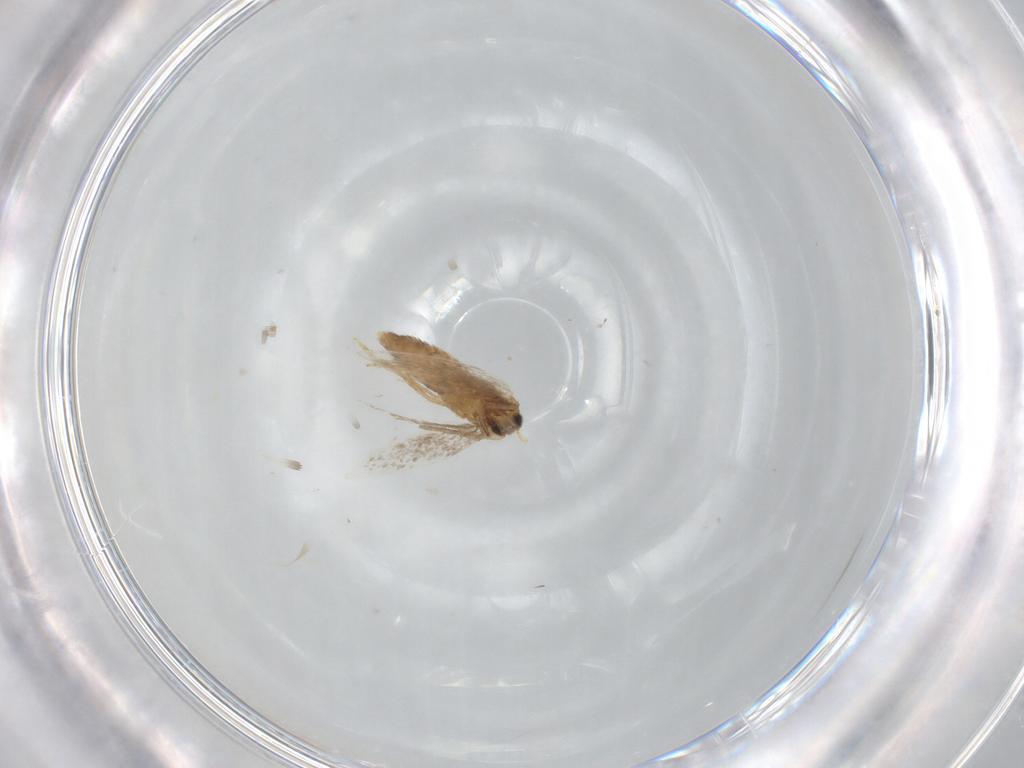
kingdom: Animalia
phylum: Arthropoda
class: Insecta
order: Lepidoptera
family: Nepticulidae
